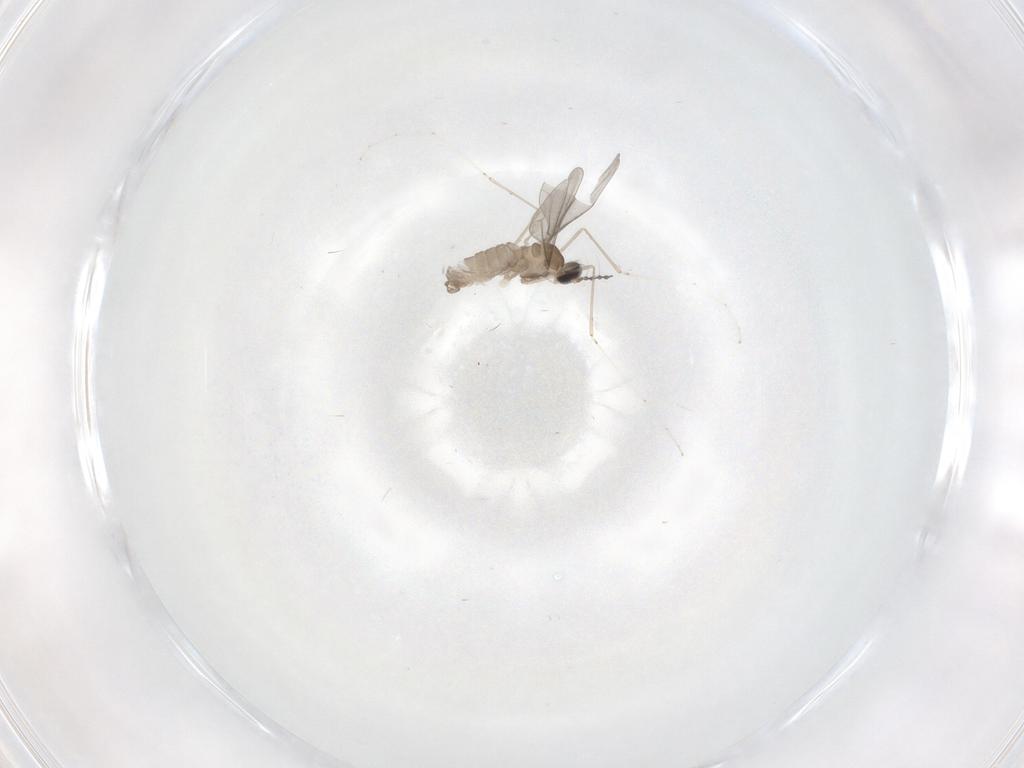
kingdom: Animalia
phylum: Arthropoda
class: Insecta
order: Diptera
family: Cecidomyiidae
